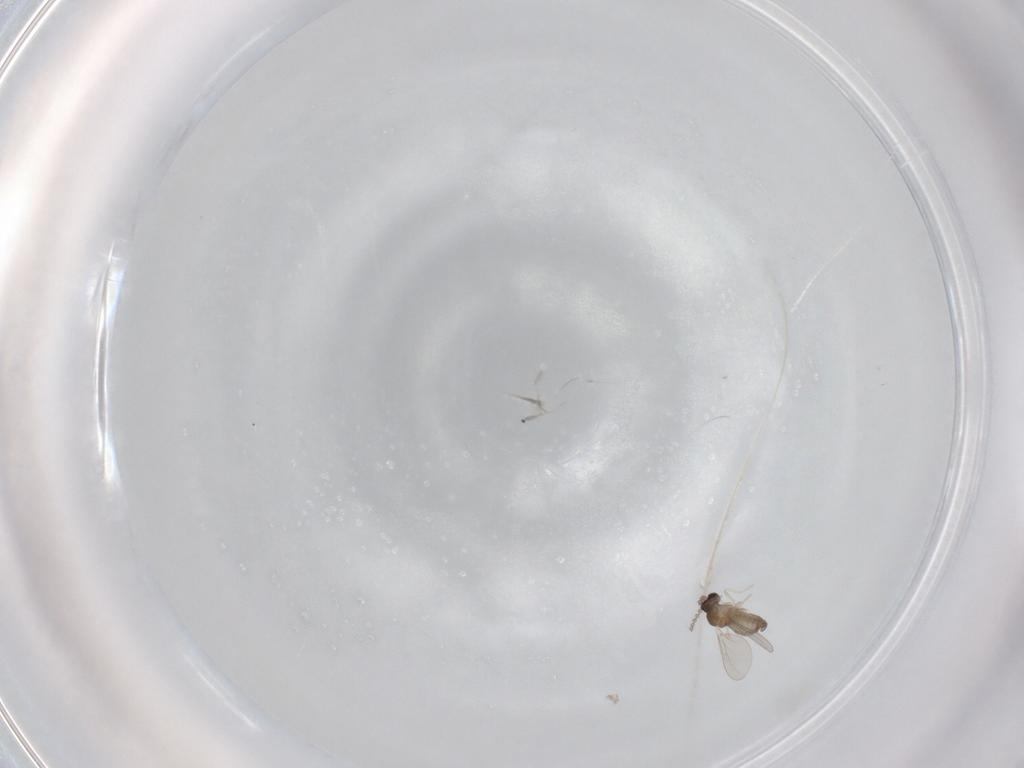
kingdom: Animalia
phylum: Arthropoda
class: Insecta
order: Diptera
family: Cecidomyiidae
